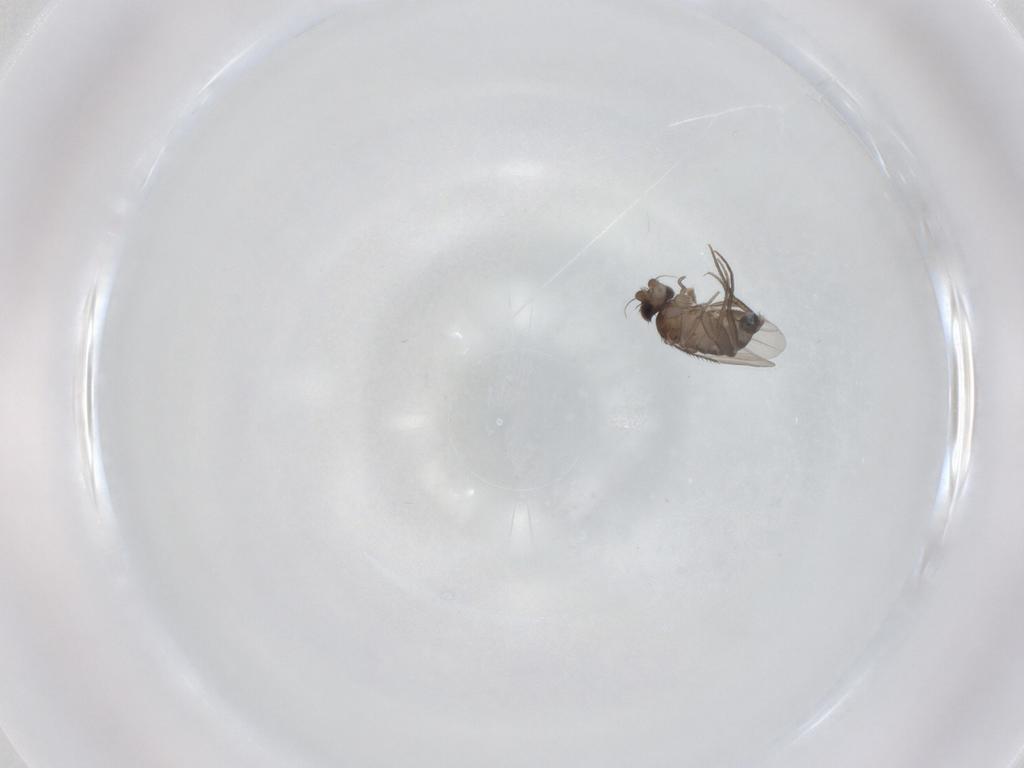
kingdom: Animalia
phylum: Arthropoda
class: Insecta
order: Diptera
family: Phoridae
